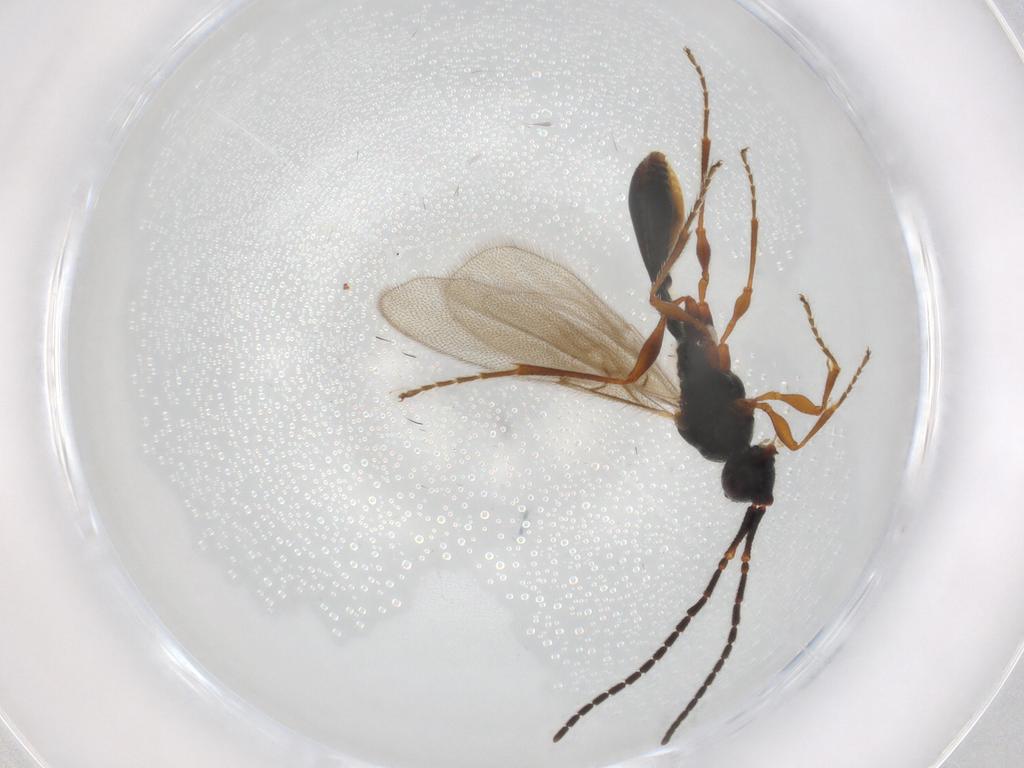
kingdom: Animalia
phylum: Arthropoda
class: Insecta
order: Hymenoptera
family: Diapriidae
